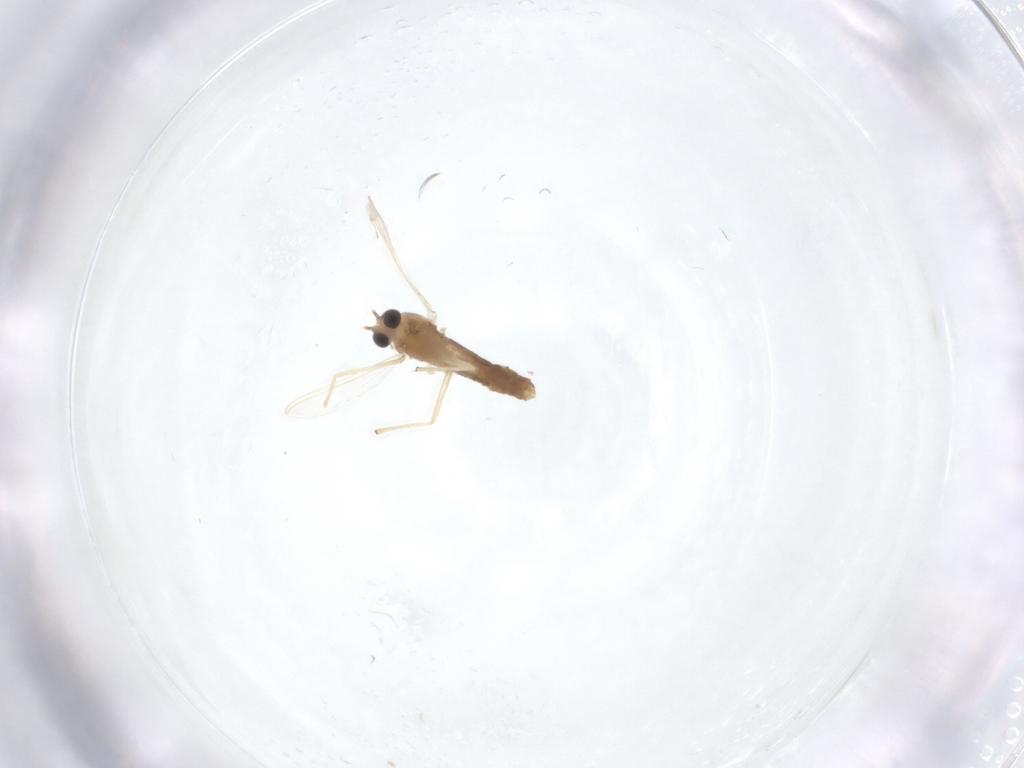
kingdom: Animalia
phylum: Arthropoda
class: Insecta
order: Diptera
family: Chironomidae
